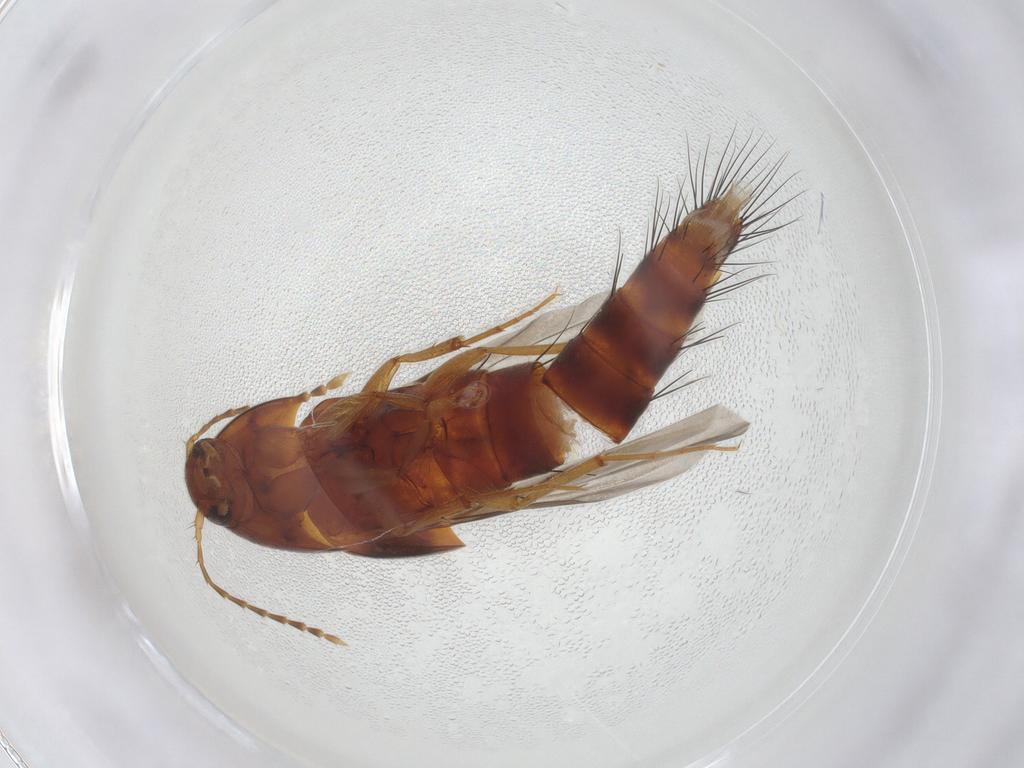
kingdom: Animalia
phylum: Arthropoda
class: Insecta
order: Coleoptera
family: Staphylinidae
